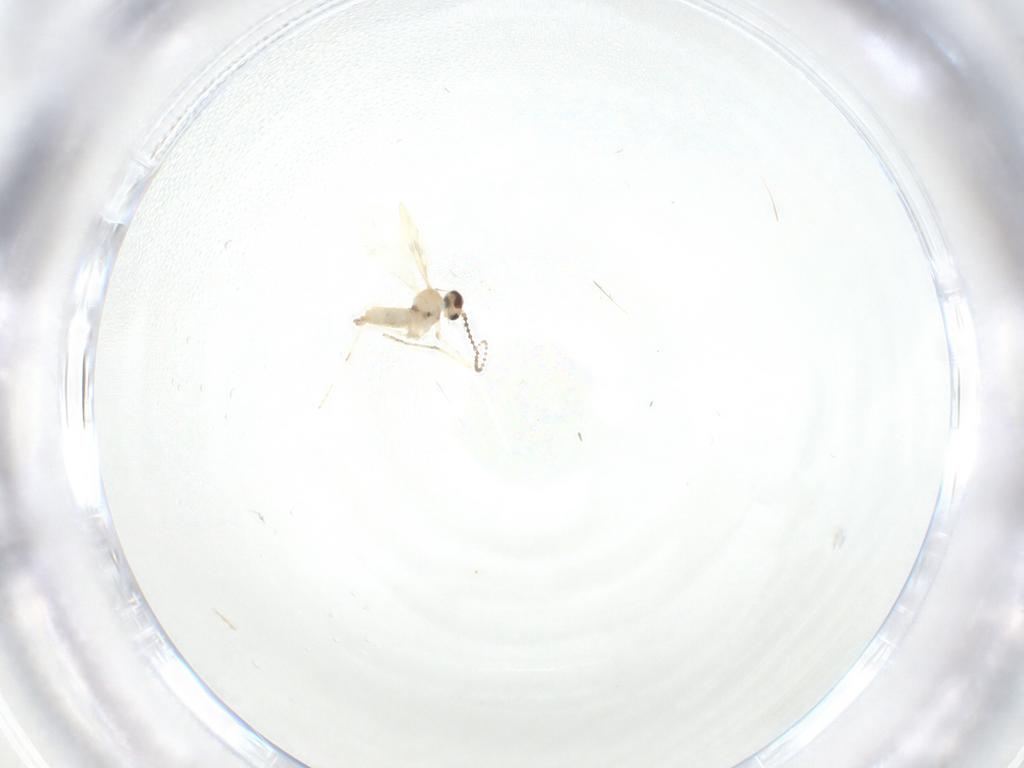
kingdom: Animalia
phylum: Arthropoda
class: Insecta
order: Diptera
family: Cecidomyiidae
